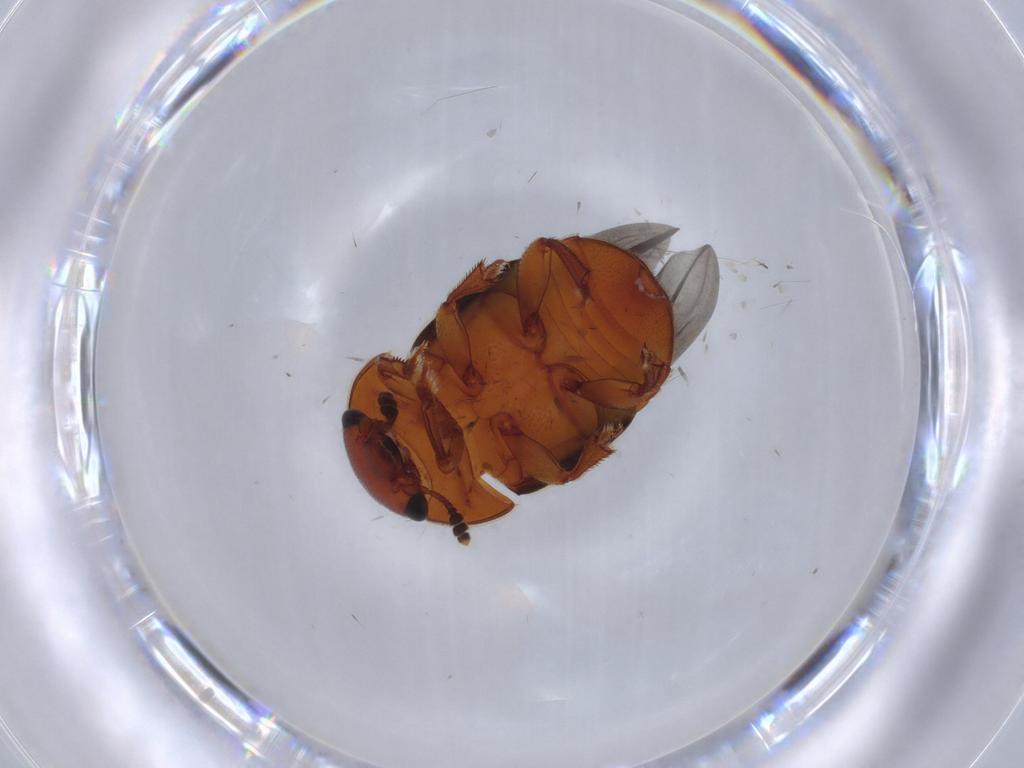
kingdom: Animalia
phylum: Arthropoda
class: Insecta
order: Coleoptera
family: Nitidulidae
